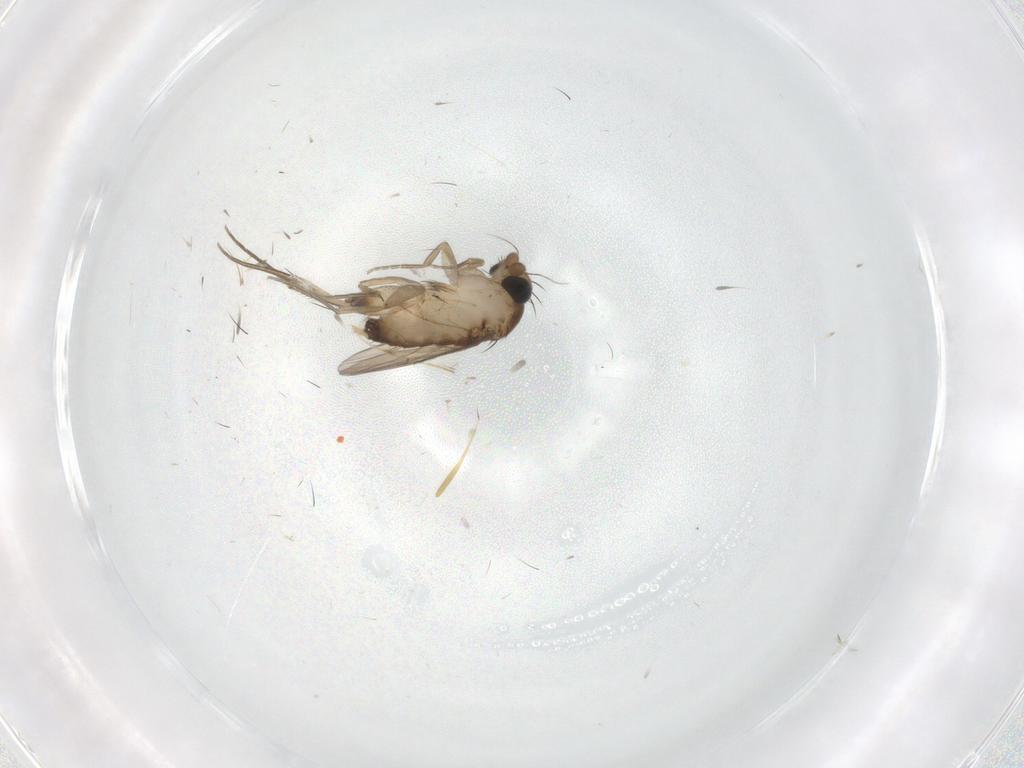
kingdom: Animalia
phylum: Arthropoda
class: Insecta
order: Diptera
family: Phoridae
